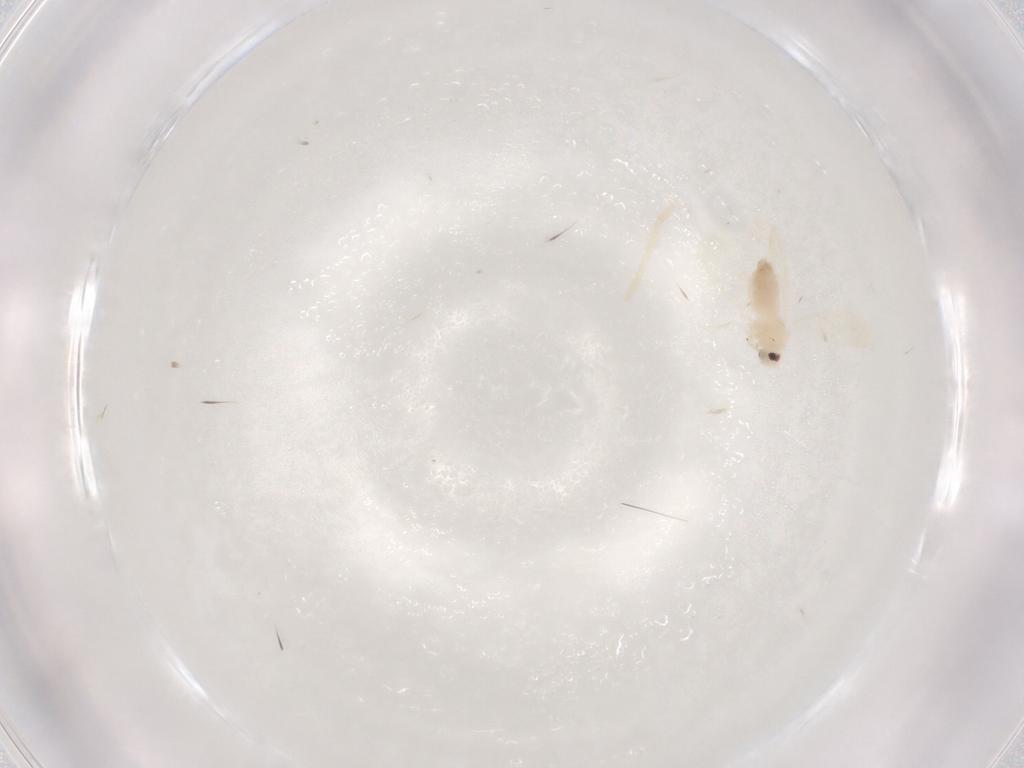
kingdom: Animalia
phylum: Arthropoda
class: Insecta
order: Hemiptera
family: Aleyrodidae
